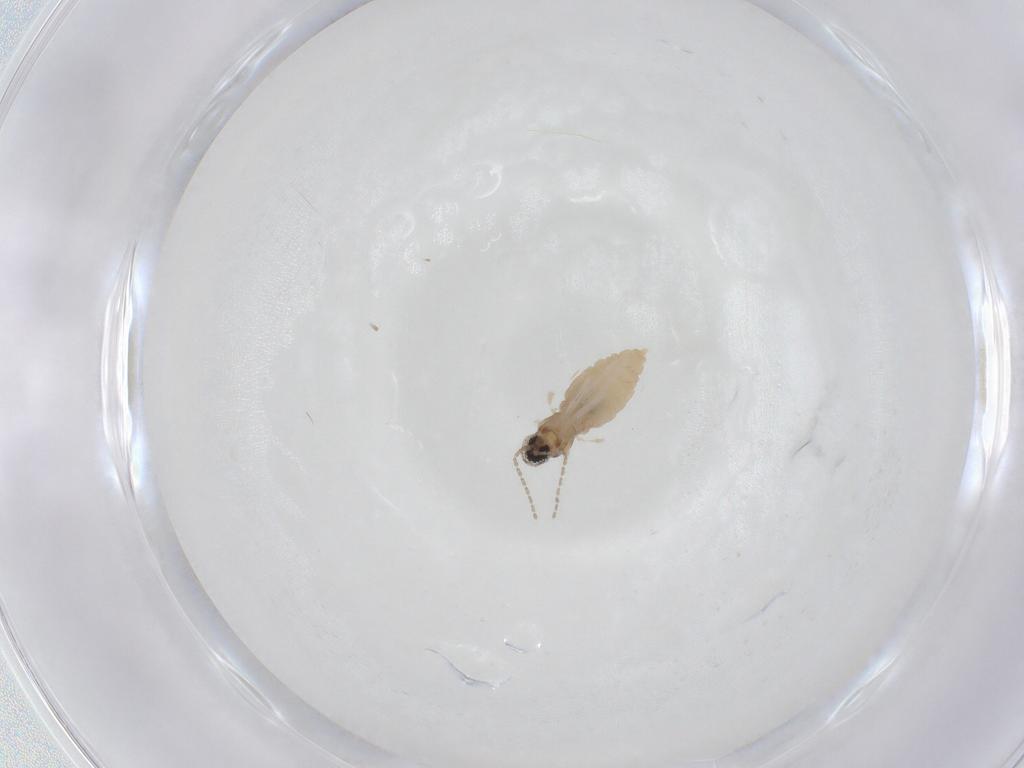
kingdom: Animalia
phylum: Arthropoda
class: Insecta
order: Diptera
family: Cecidomyiidae
